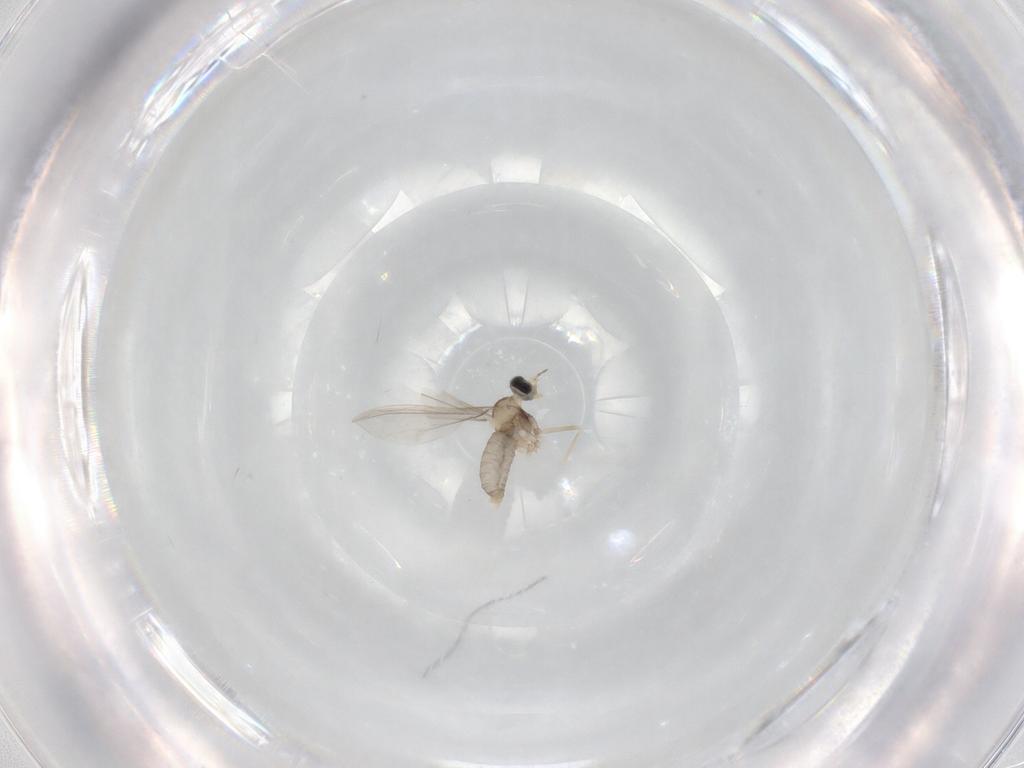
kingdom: Animalia
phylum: Arthropoda
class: Insecta
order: Diptera
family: Cecidomyiidae
